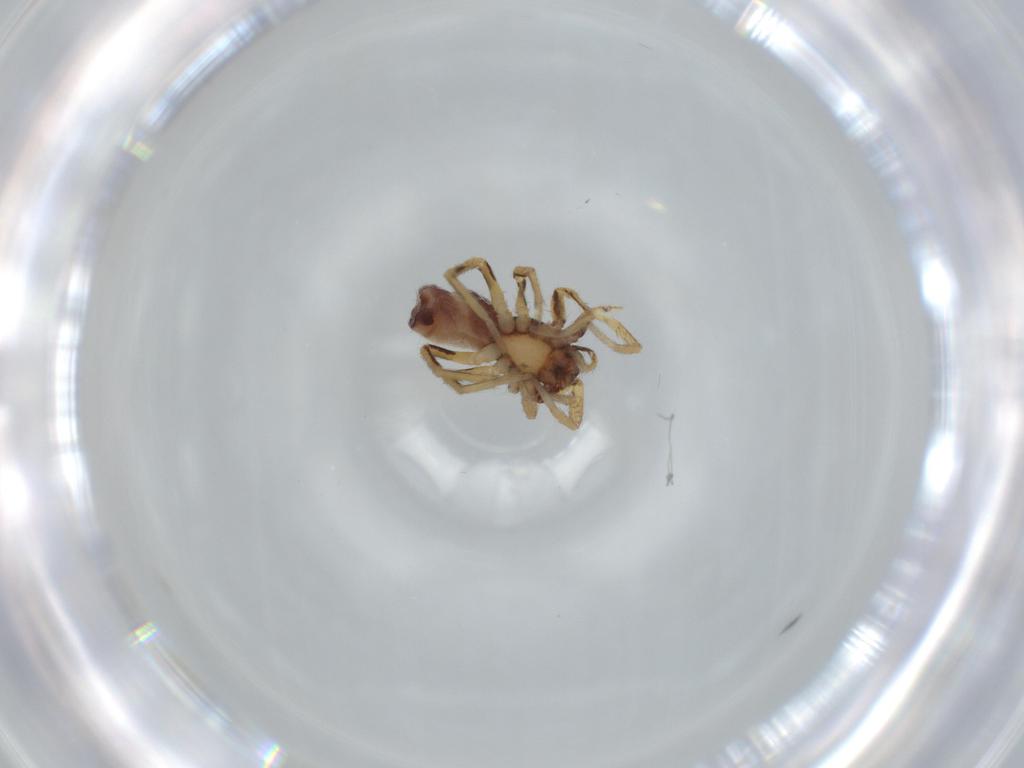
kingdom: Animalia
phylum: Arthropoda
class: Arachnida
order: Araneae
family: Corinnidae
